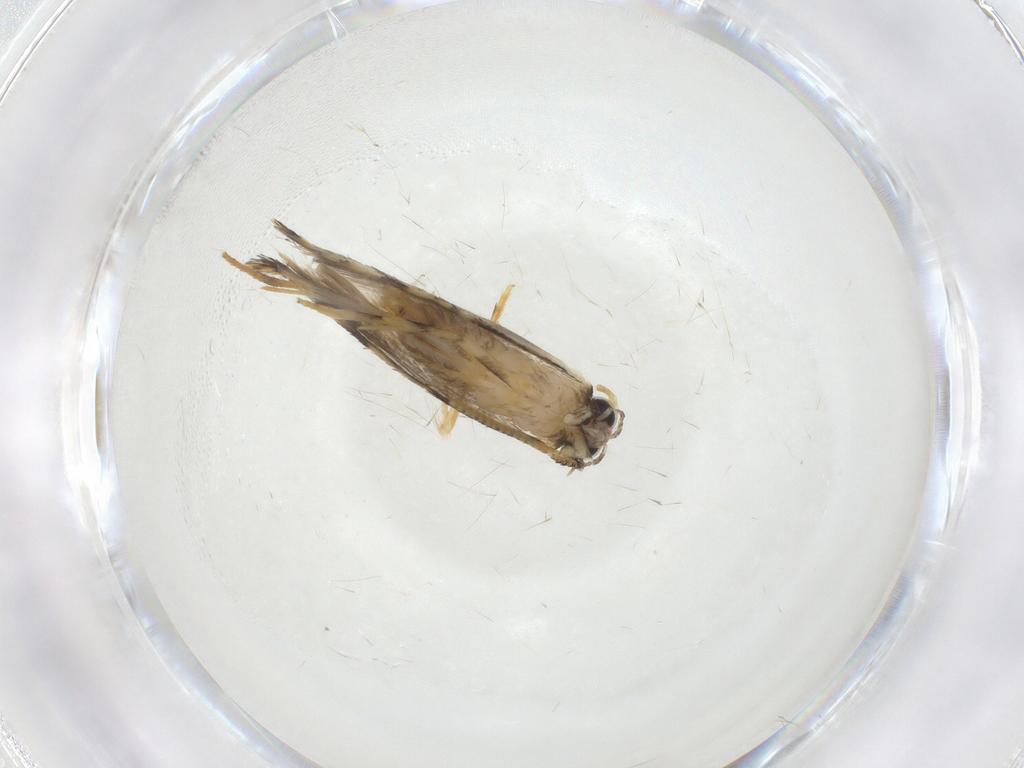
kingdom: Animalia
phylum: Arthropoda
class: Insecta
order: Lepidoptera
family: Tineidae
